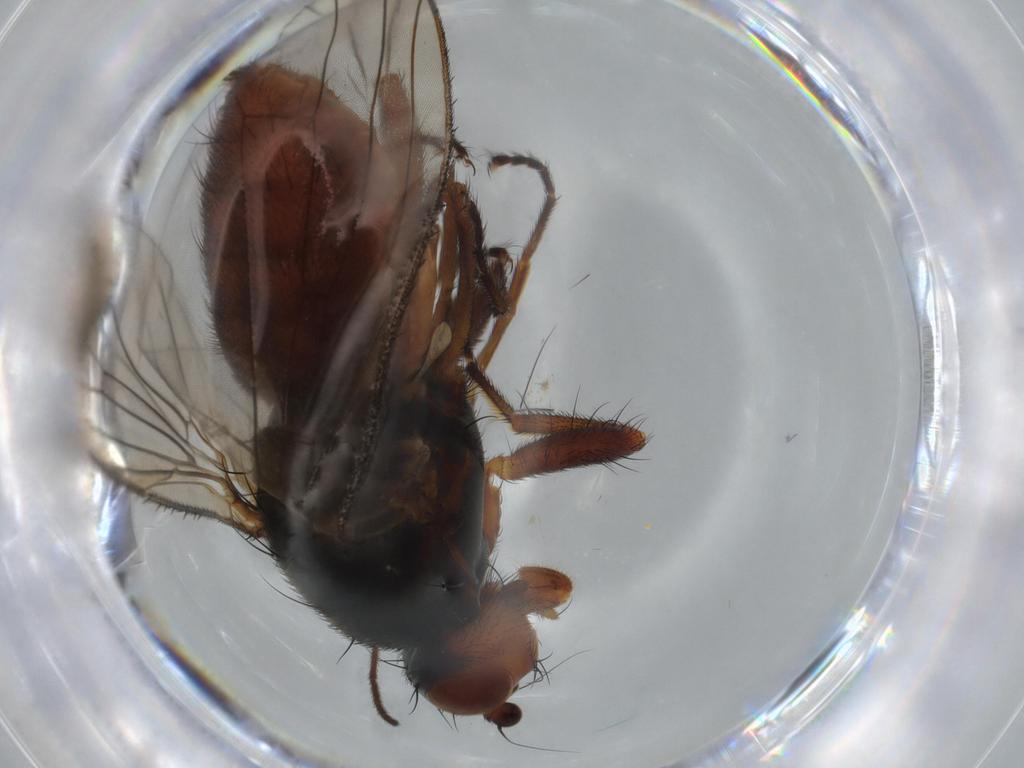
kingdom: Animalia
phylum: Arthropoda
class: Insecta
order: Diptera
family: Heleomyzidae
